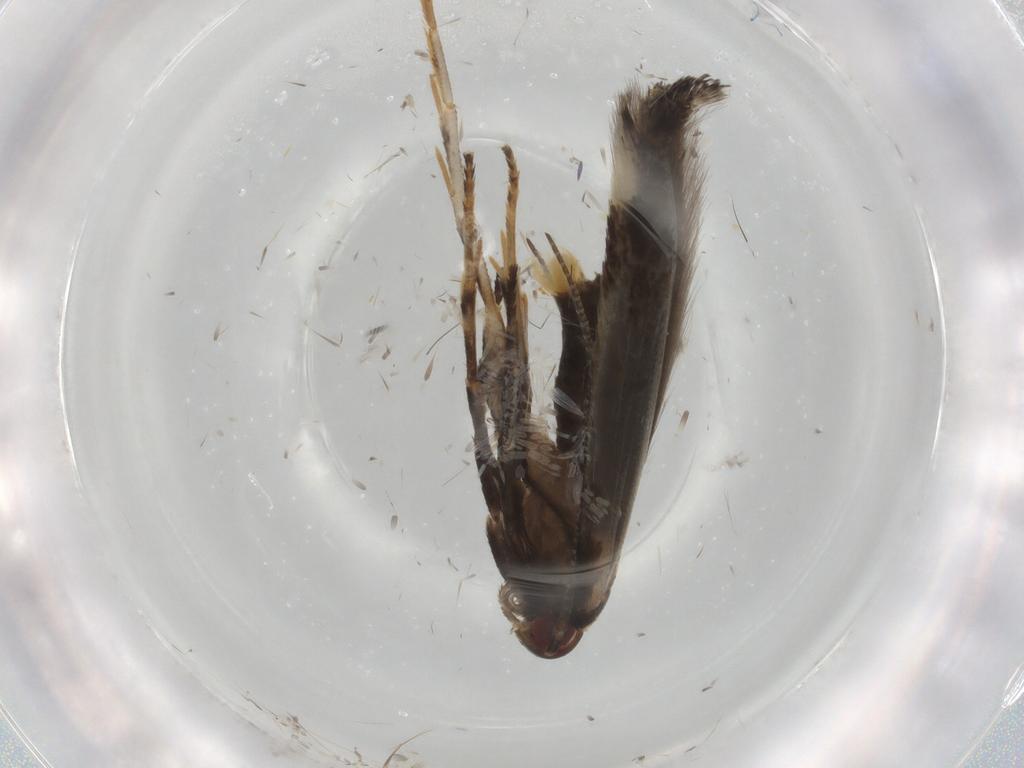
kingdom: Animalia
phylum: Arthropoda
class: Insecta
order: Lepidoptera
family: Cosmopterigidae
